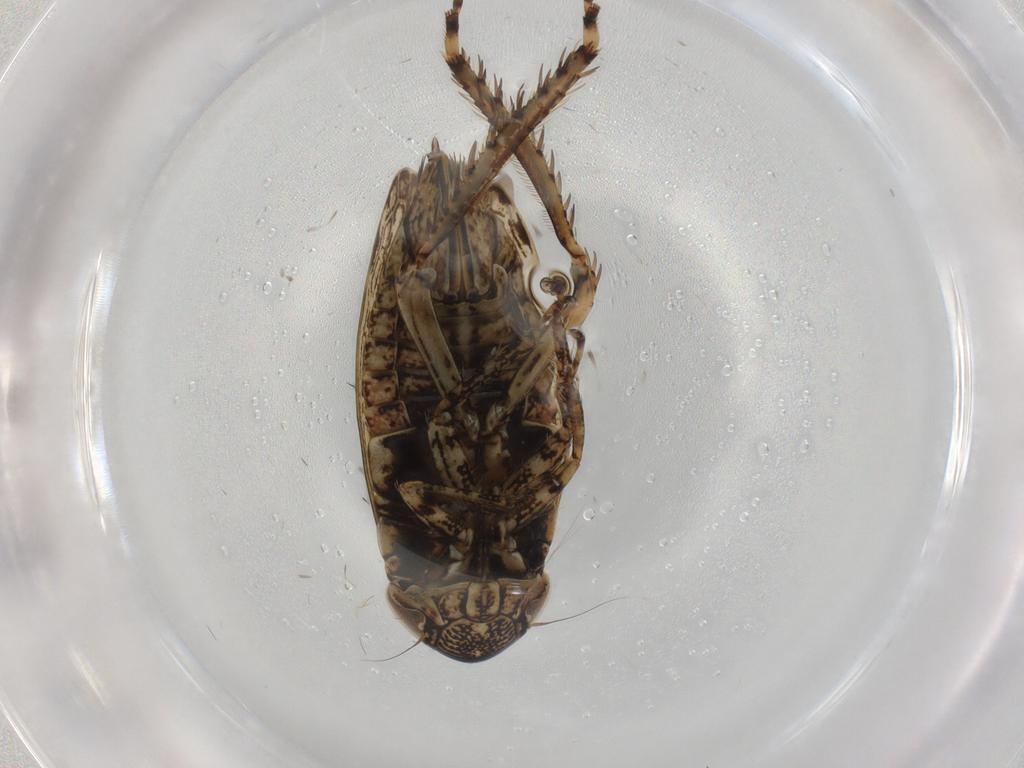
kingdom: Animalia
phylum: Arthropoda
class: Insecta
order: Hemiptera
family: Cicadellidae
